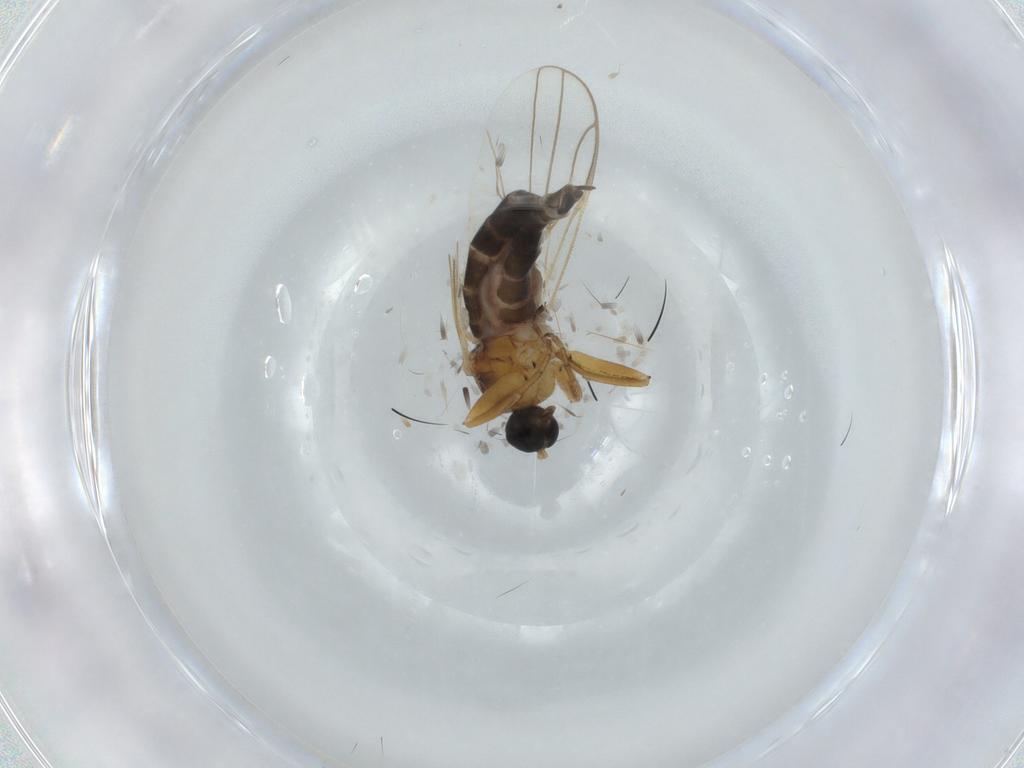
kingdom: Animalia
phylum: Arthropoda
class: Insecta
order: Diptera
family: Hybotidae
